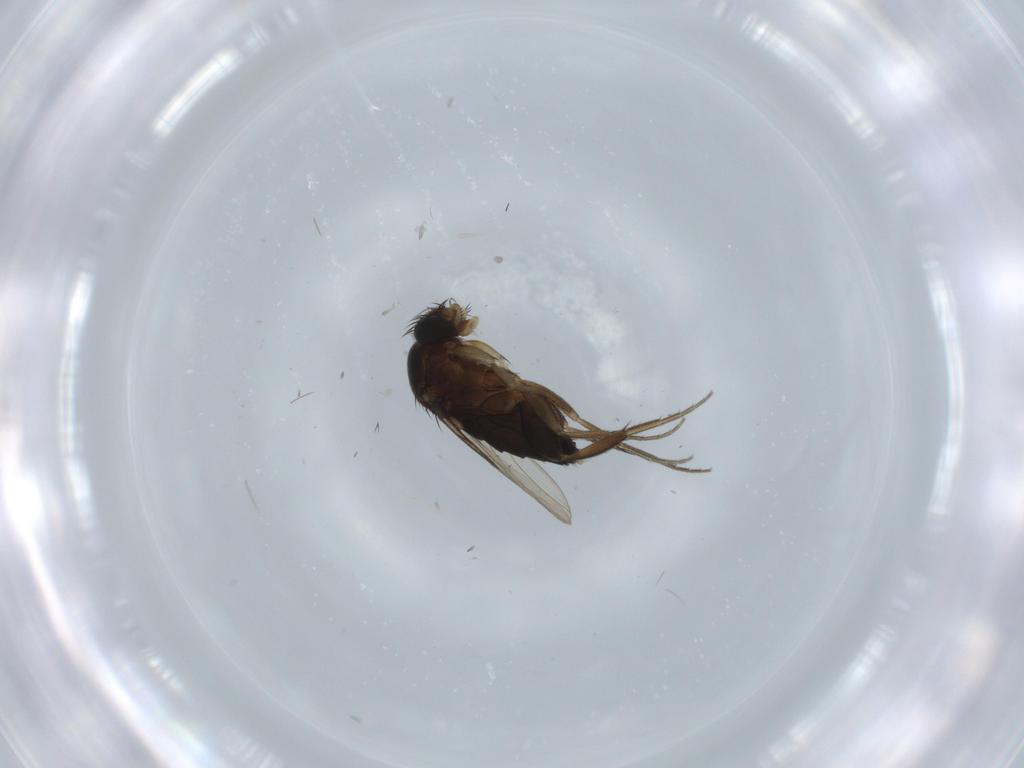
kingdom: Animalia
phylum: Arthropoda
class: Insecta
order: Diptera
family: Phoridae
